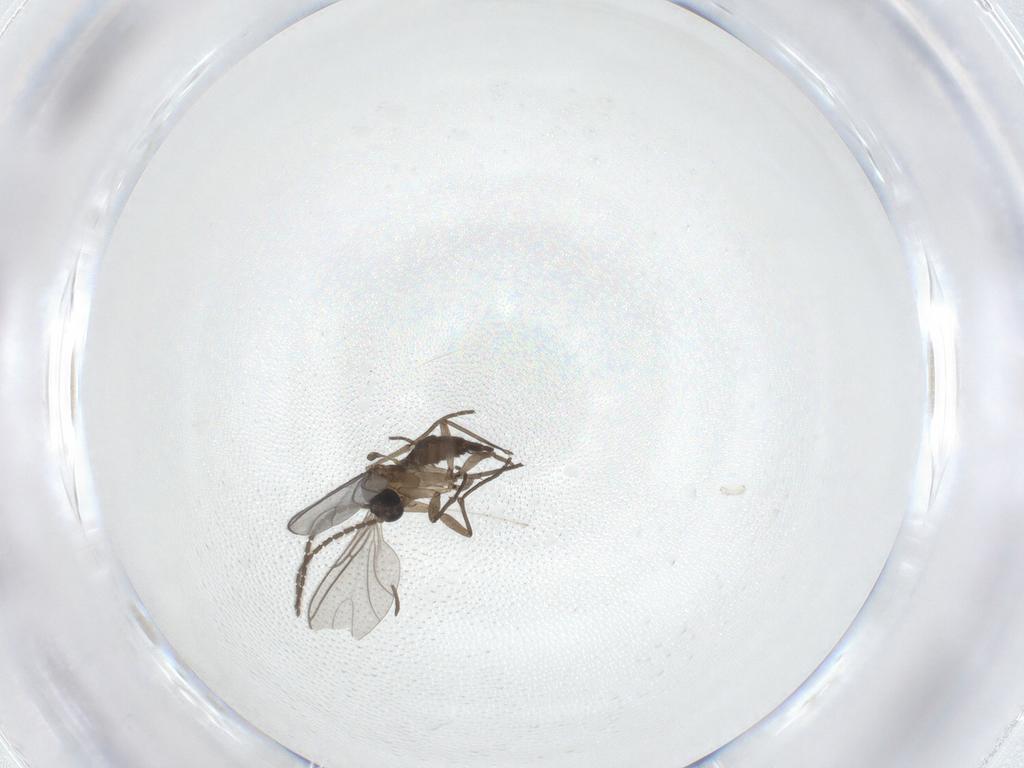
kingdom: Animalia
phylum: Arthropoda
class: Insecta
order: Diptera
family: Sciaridae
